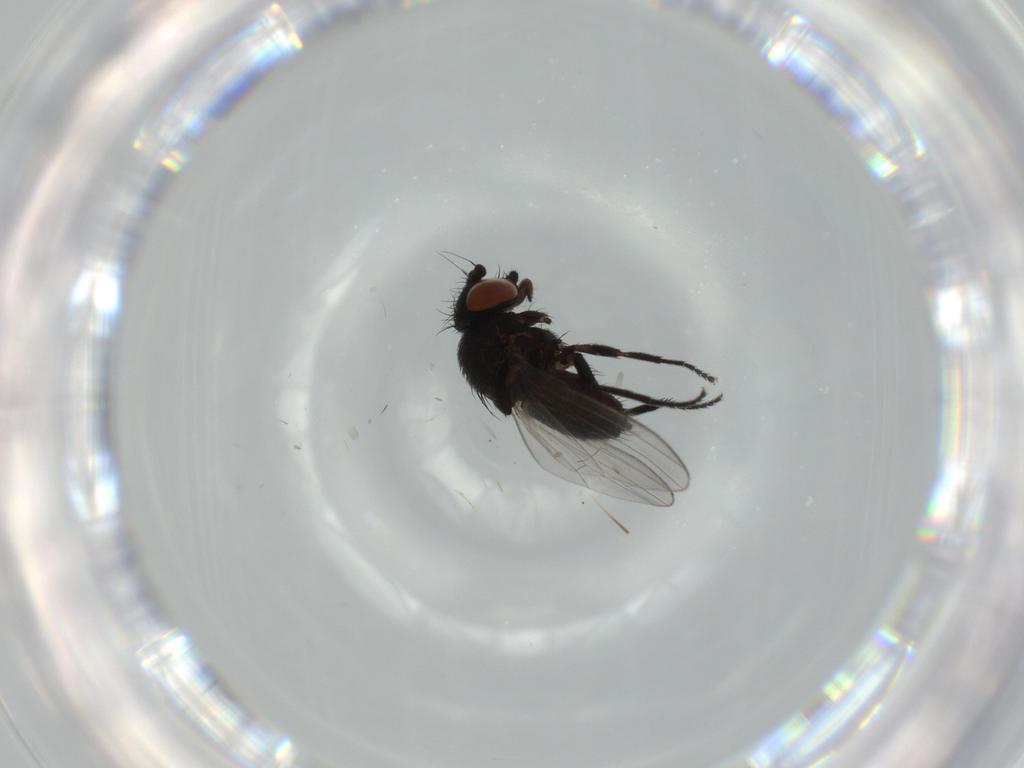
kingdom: Animalia
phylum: Arthropoda
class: Insecta
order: Diptera
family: Milichiidae
